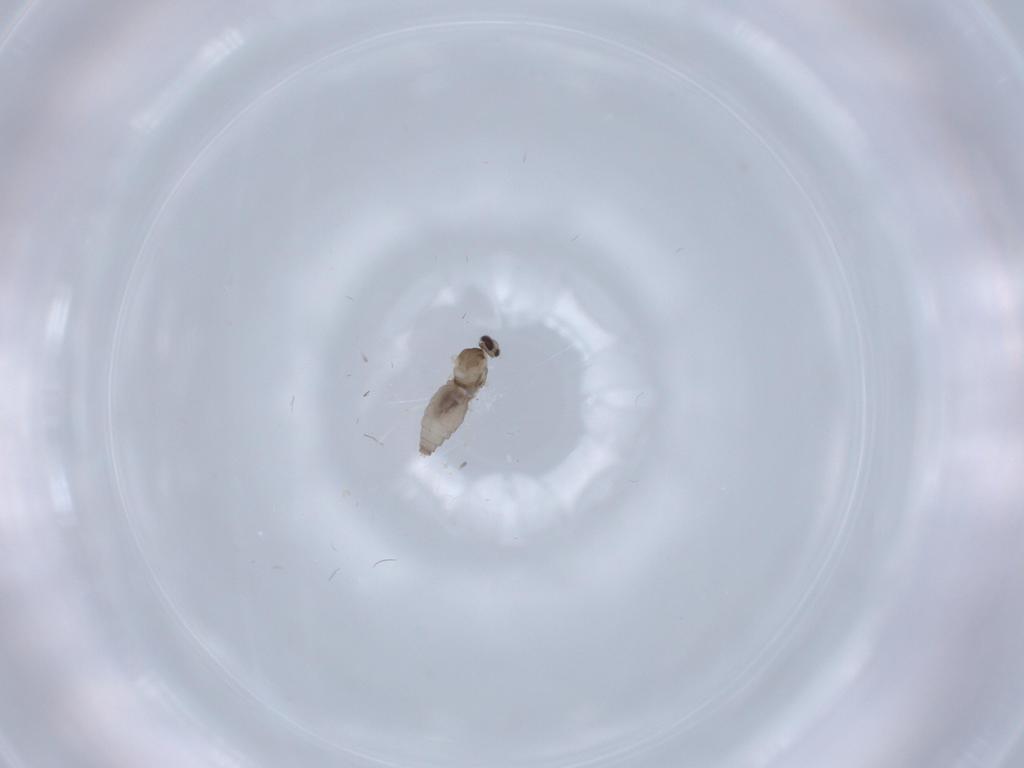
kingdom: Animalia
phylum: Arthropoda
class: Insecta
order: Diptera
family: Cecidomyiidae
